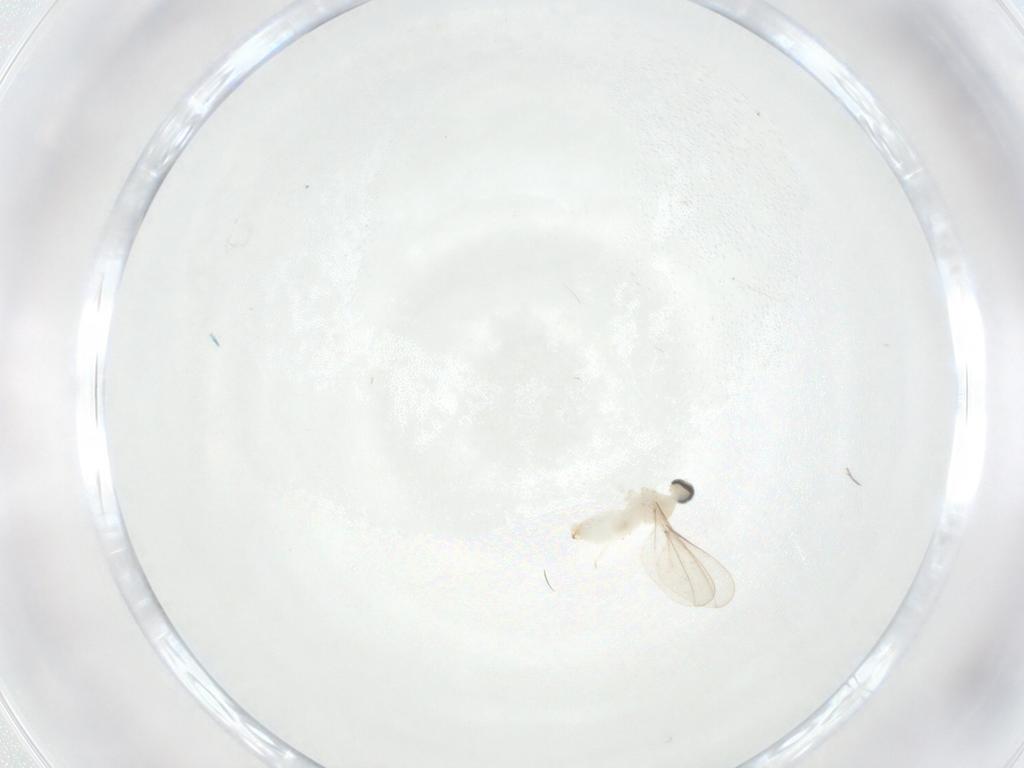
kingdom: Animalia
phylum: Arthropoda
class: Insecta
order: Diptera
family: Cecidomyiidae
